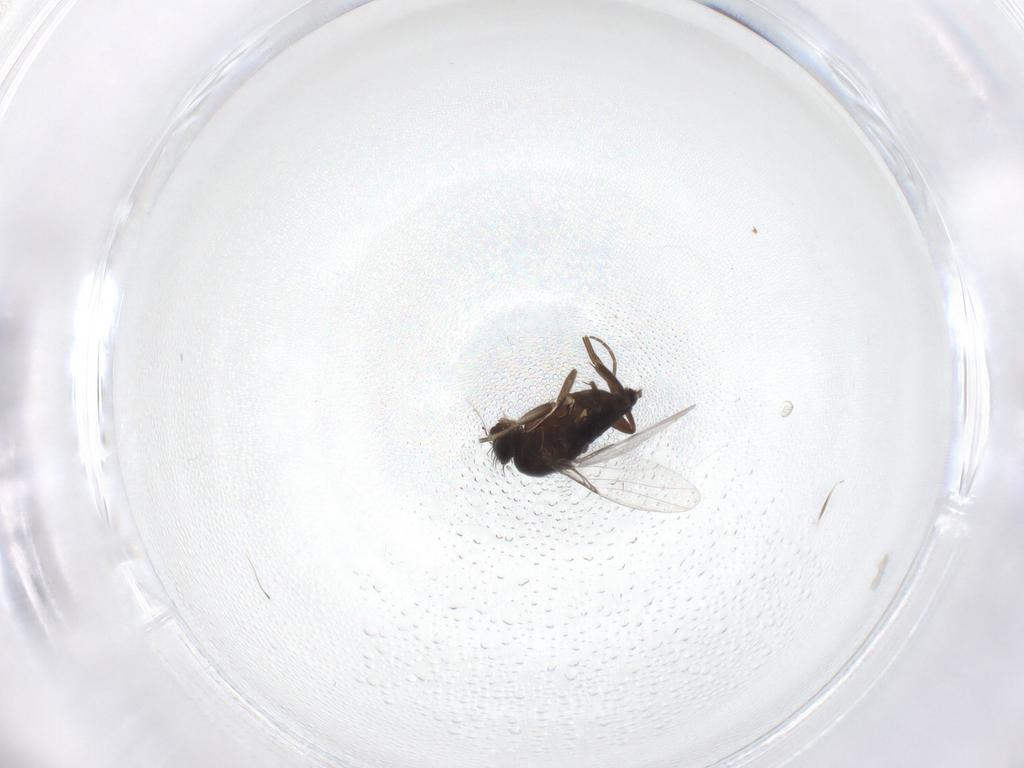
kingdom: Animalia
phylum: Arthropoda
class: Insecta
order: Diptera
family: Phoridae
